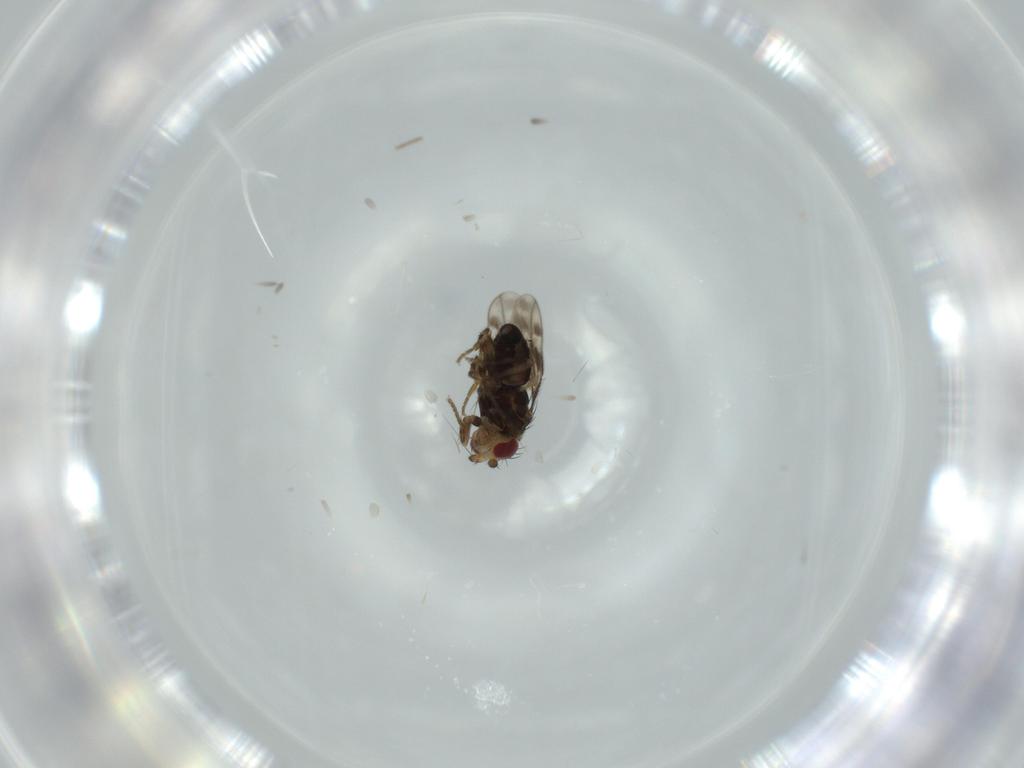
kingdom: Animalia
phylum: Arthropoda
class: Insecta
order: Diptera
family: Sphaeroceridae
